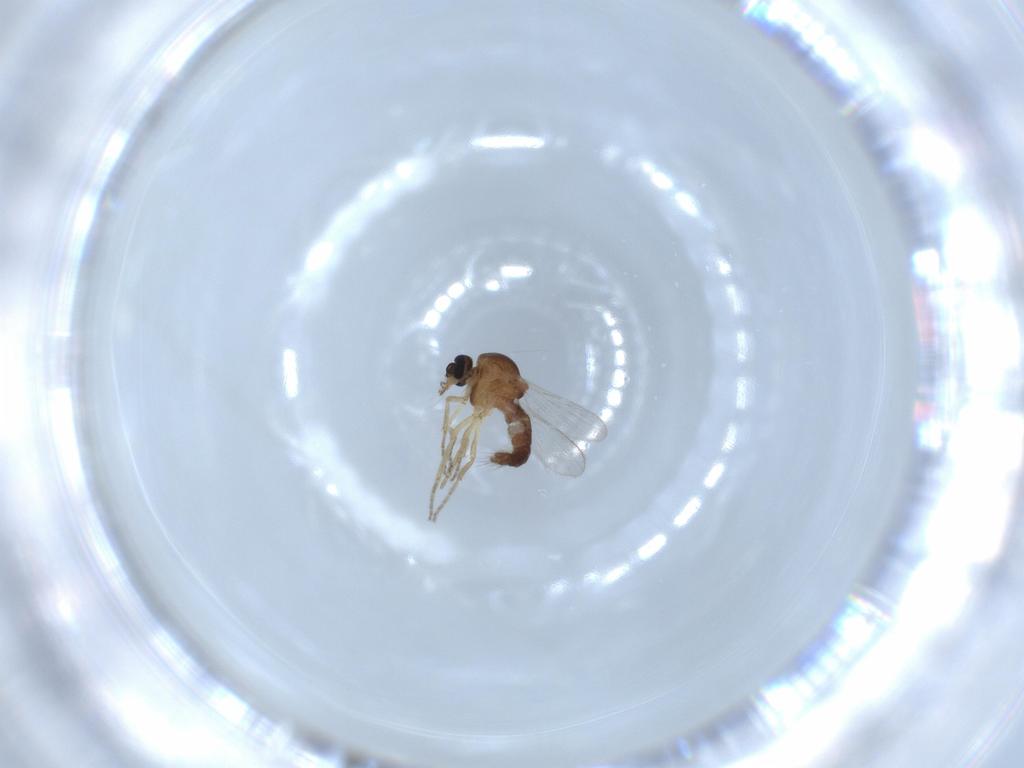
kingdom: Animalia
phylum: Arthropoda
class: Insecta
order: Diptera
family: Ceratopogonidae
